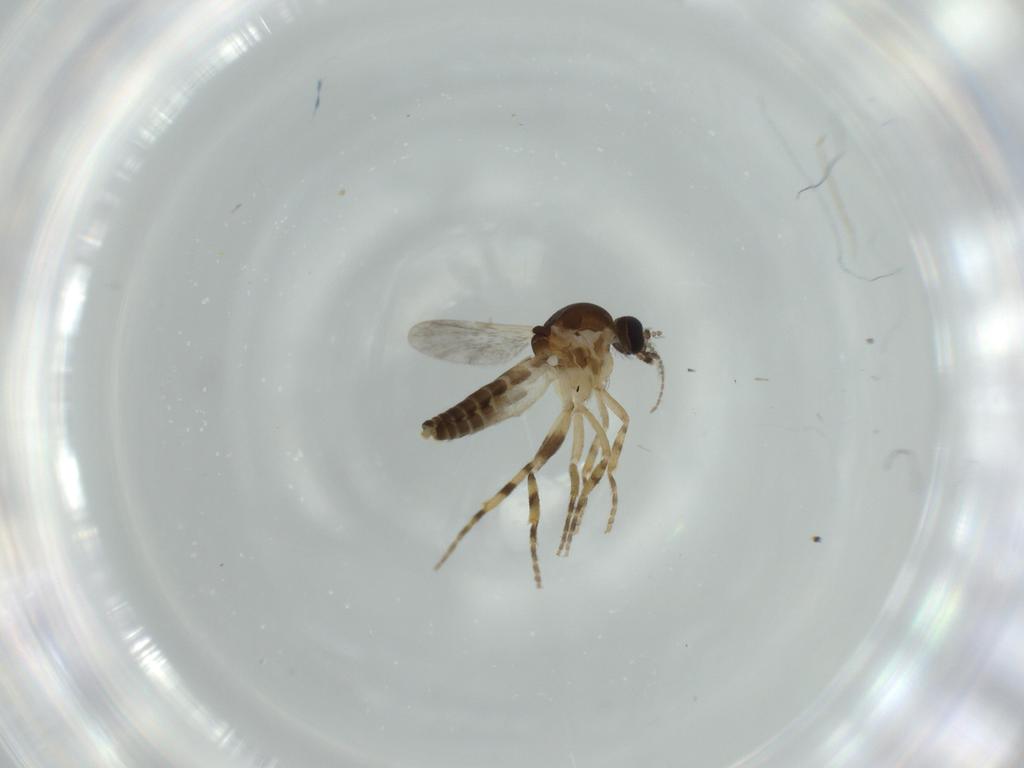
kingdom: Animalia
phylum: Arthropoda
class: Insecta
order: Diptera
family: Ceratopogonidae
